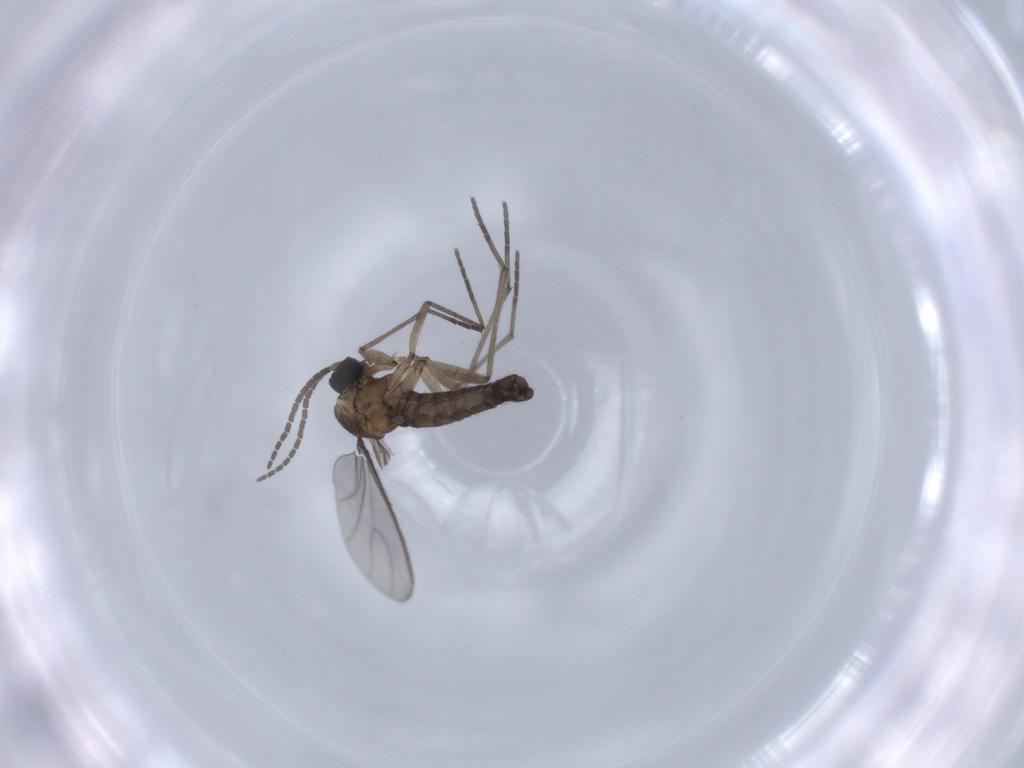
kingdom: Animalia
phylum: Arthropoda
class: Insecta
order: Diptera
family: Sciaridae
